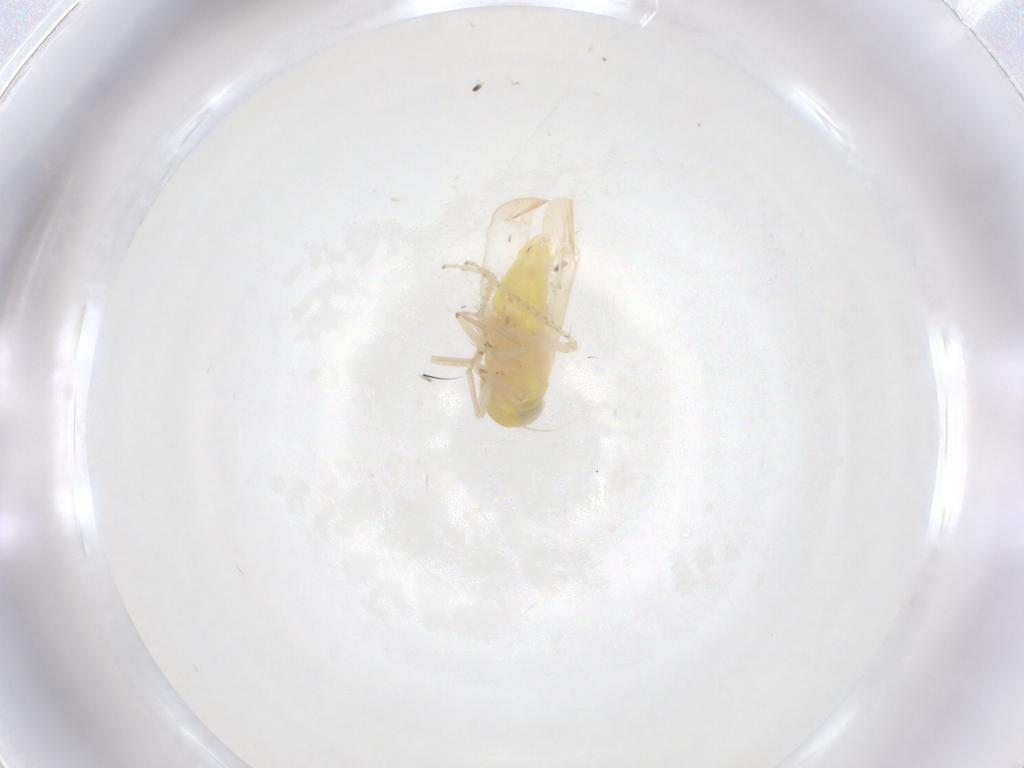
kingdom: Animalia
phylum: Arthropoda
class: Insecta
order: Hemiptera
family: Cicadellidae
